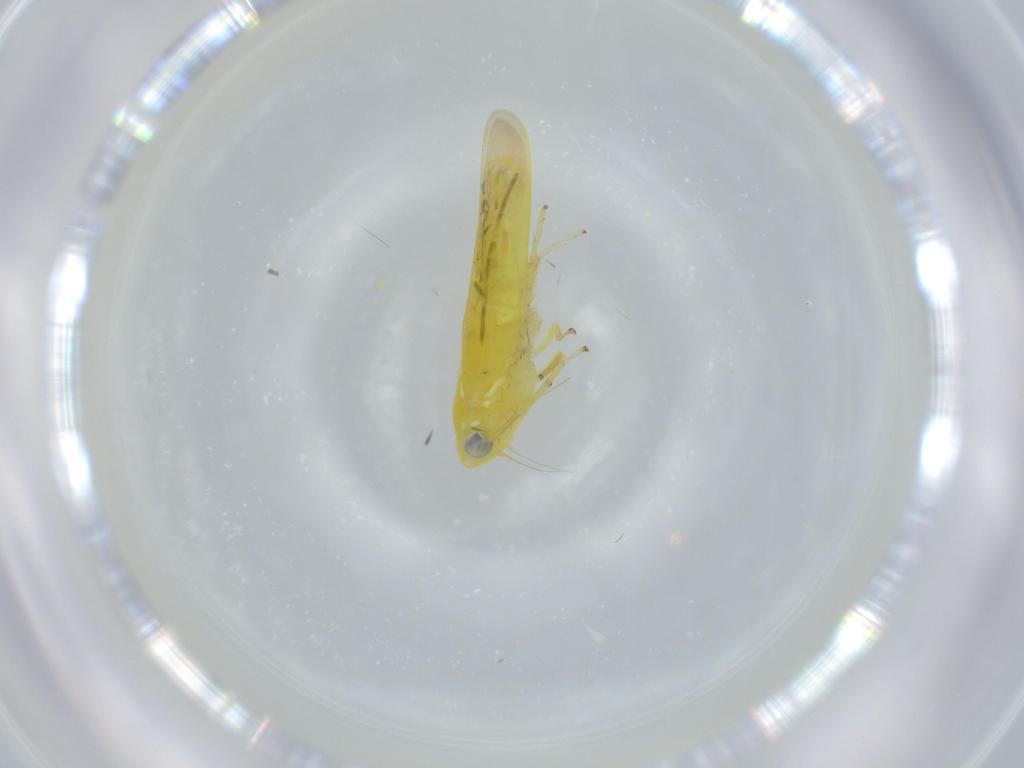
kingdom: Animalia
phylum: Arthropoda
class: Insecta
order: Hemiptera
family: Cicadellidae
